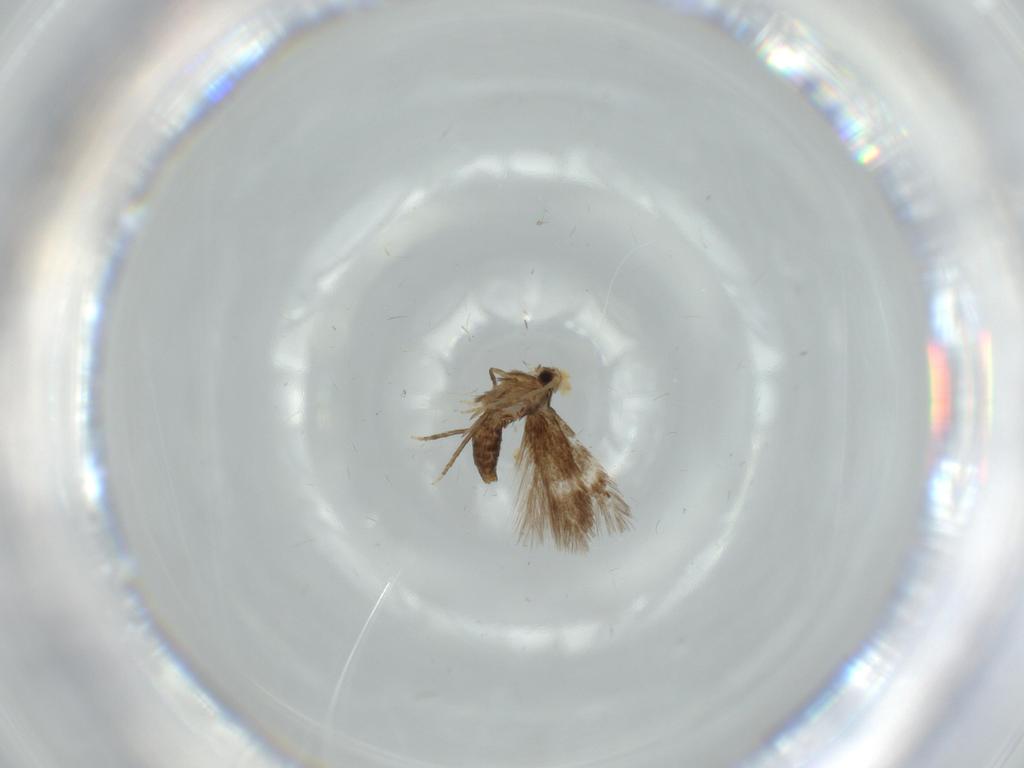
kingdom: Animalia
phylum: Arthropoda
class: Insecta
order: Lepidoptera
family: Nepticulidae
